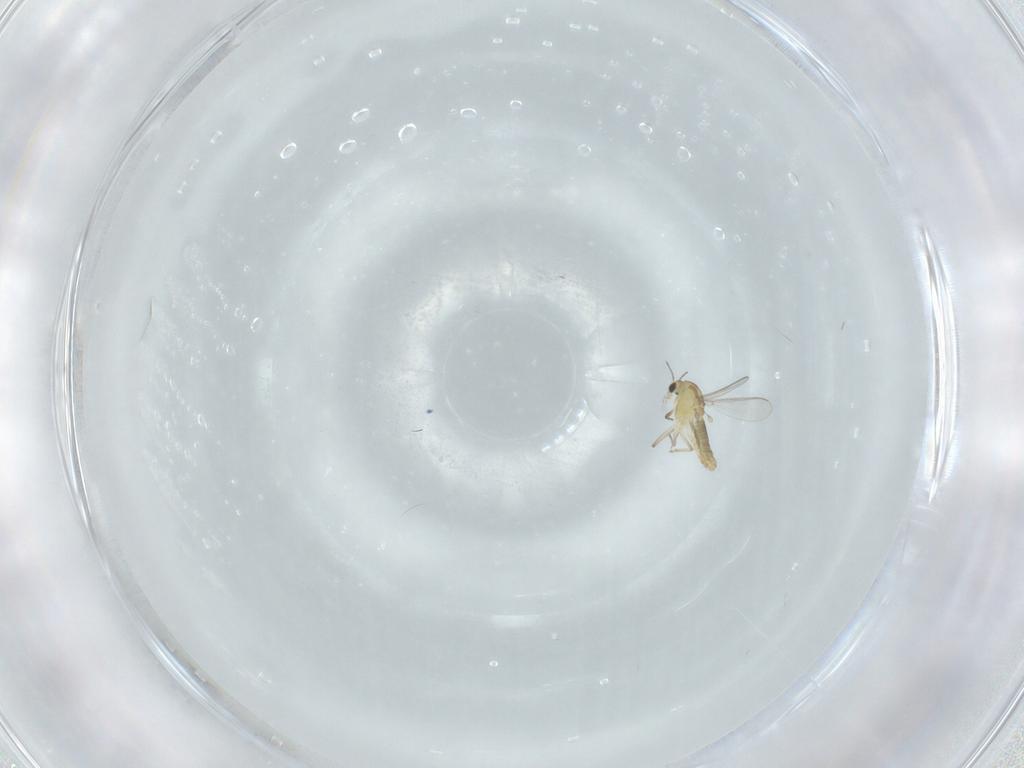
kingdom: Animalia
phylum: Arthropoda
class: Insecta
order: Diptera
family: Chironomidae
